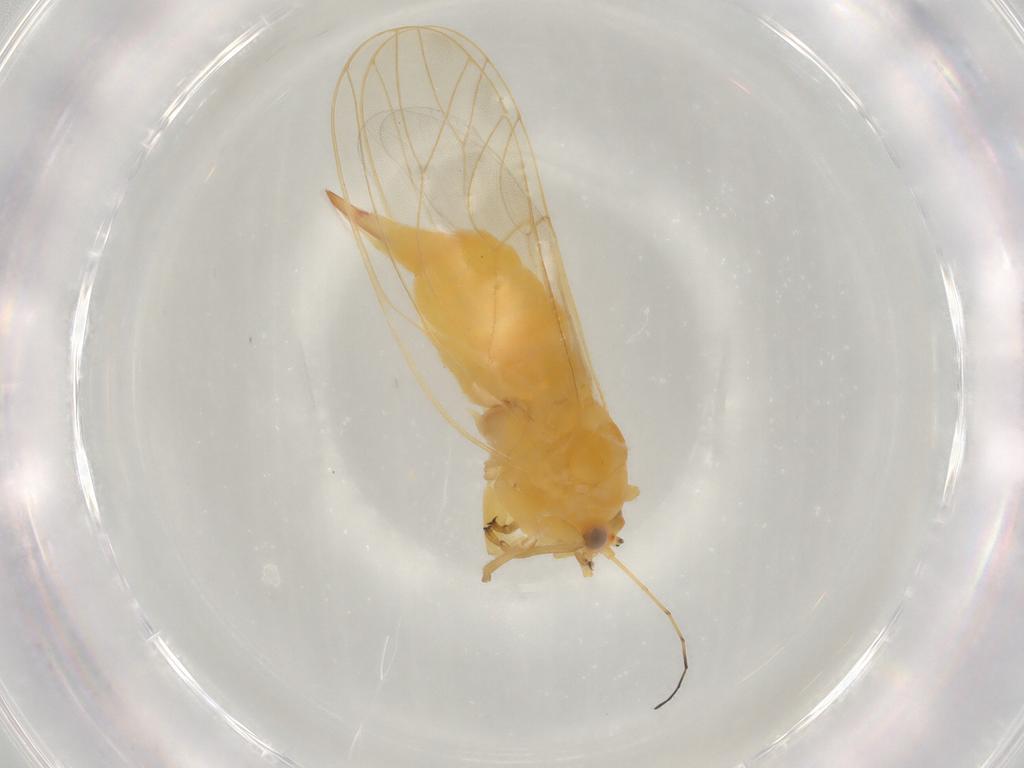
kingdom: Animalia
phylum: Arthropoda
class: Insecta
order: Hemiptera
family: Aphididae
